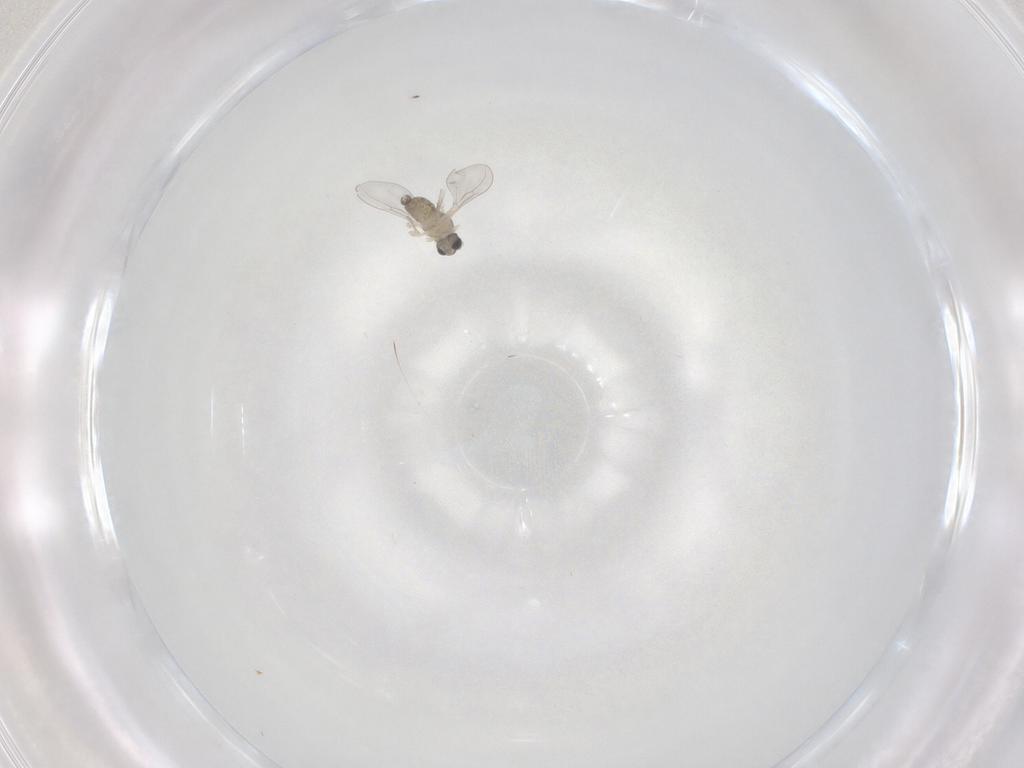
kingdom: Animalia
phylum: Arthropoda
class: Insecta
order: Diptera
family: Cecidomyiidae
